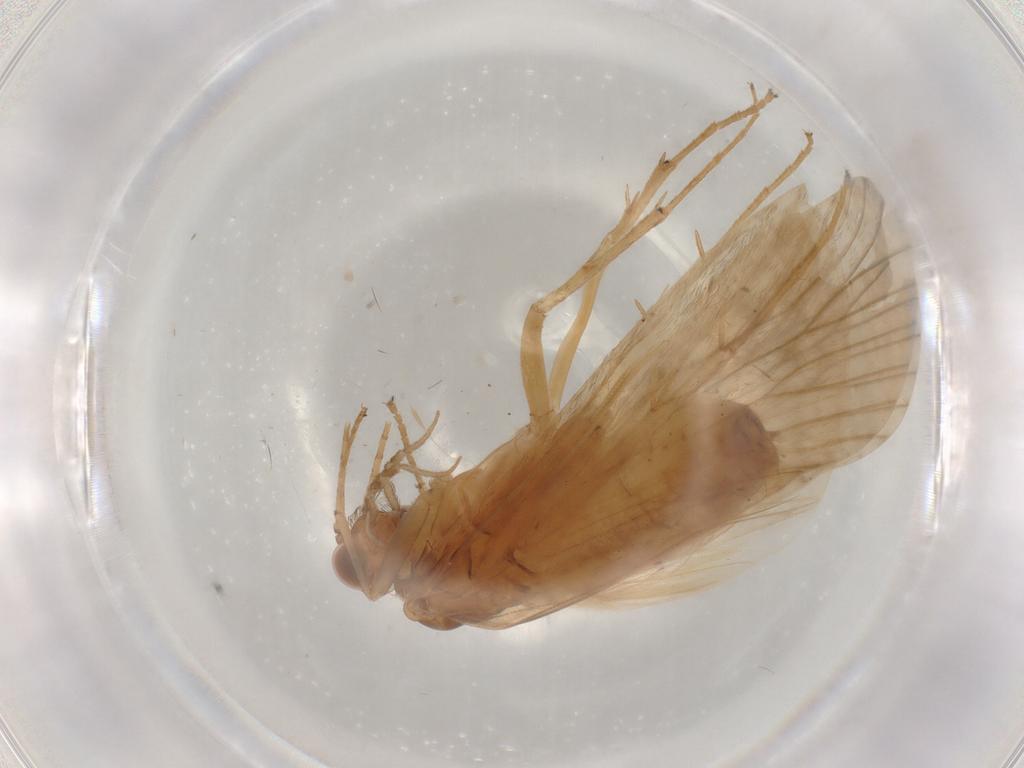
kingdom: Animalia
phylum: Arthropoda
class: Insecta
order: Trichoptera
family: Hydropsychidae
